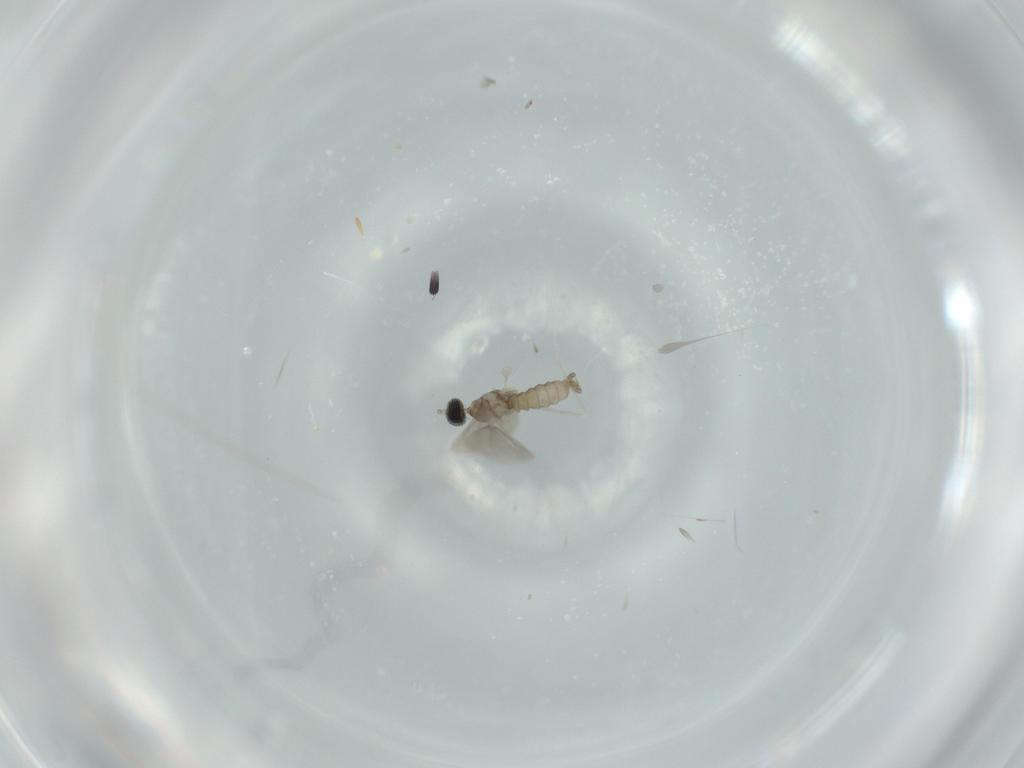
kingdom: Animalia
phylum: Arthropoda
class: Insecta
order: Diptera
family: Cecidomyiidae
